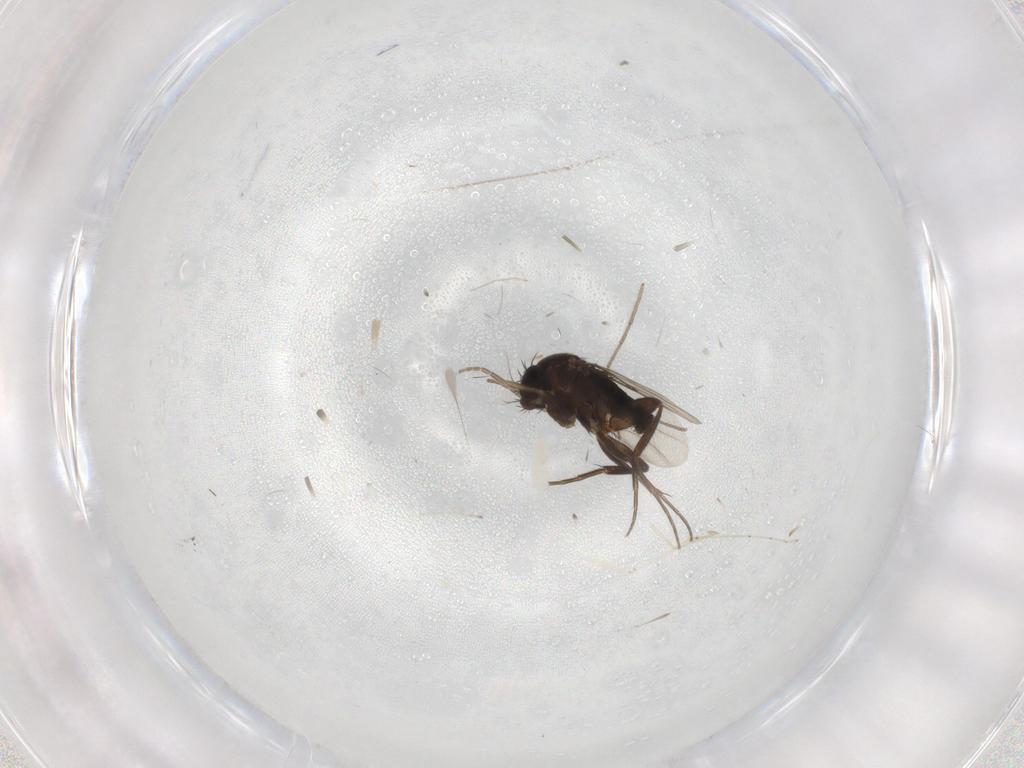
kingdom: Animalia
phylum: Arthropoda
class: Insecta
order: Diptera
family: Phoridae
